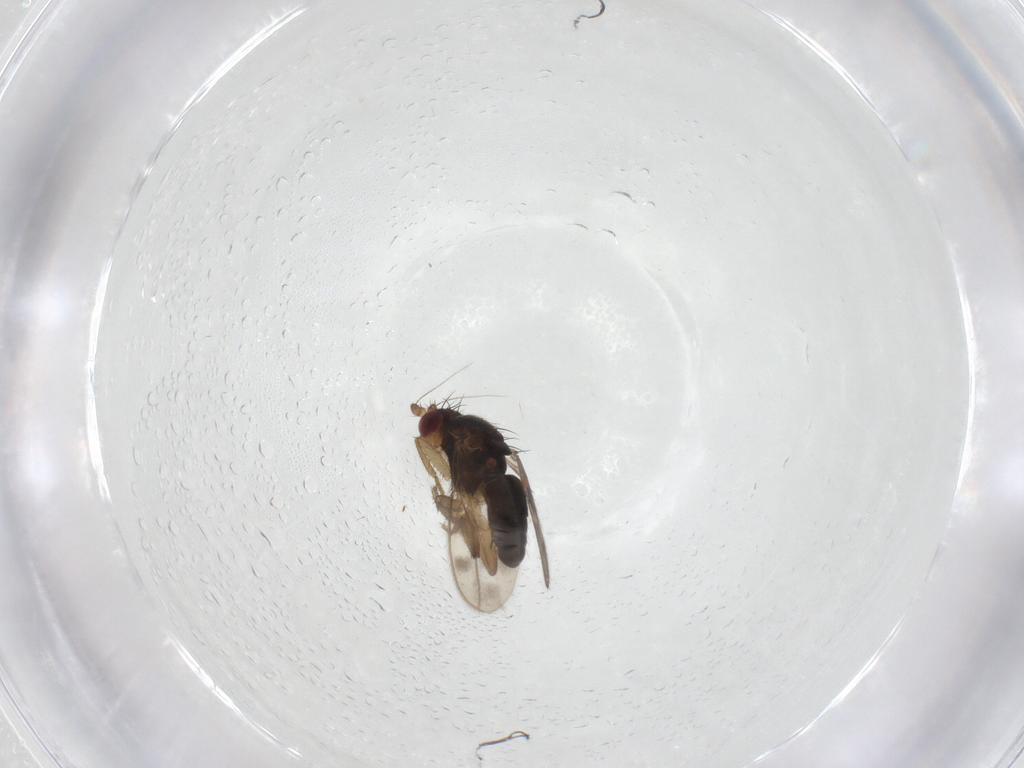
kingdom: Animalia
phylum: Arthropoda
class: Insecta
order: Diptera
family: Sphaeroceridae
